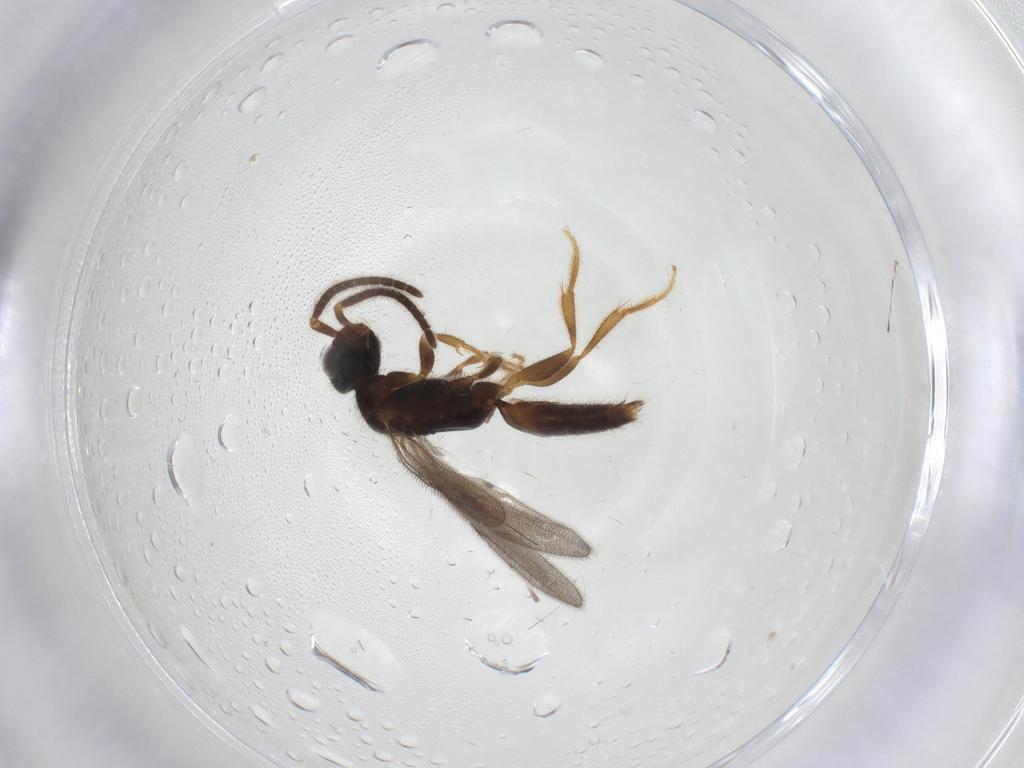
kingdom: Animalia
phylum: Arthropoda
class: Insecta
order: Hymenoptera
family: Bethylidae
